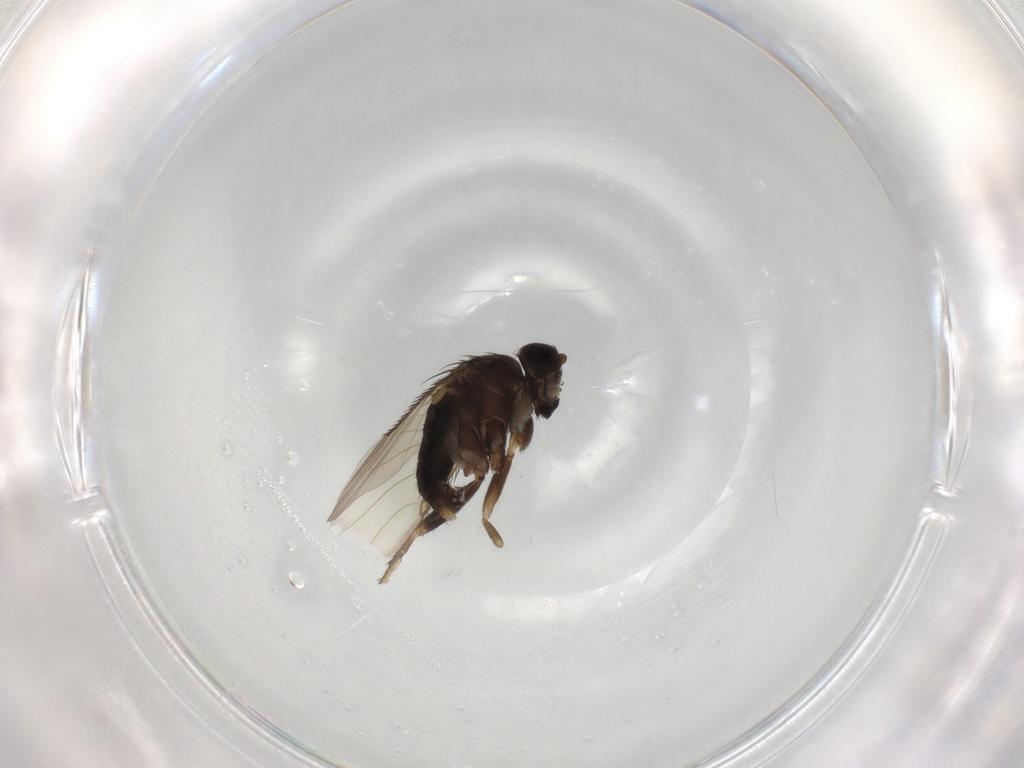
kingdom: Animalia
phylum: Arthropoda
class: Insecta
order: Diptera
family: Phoridae
